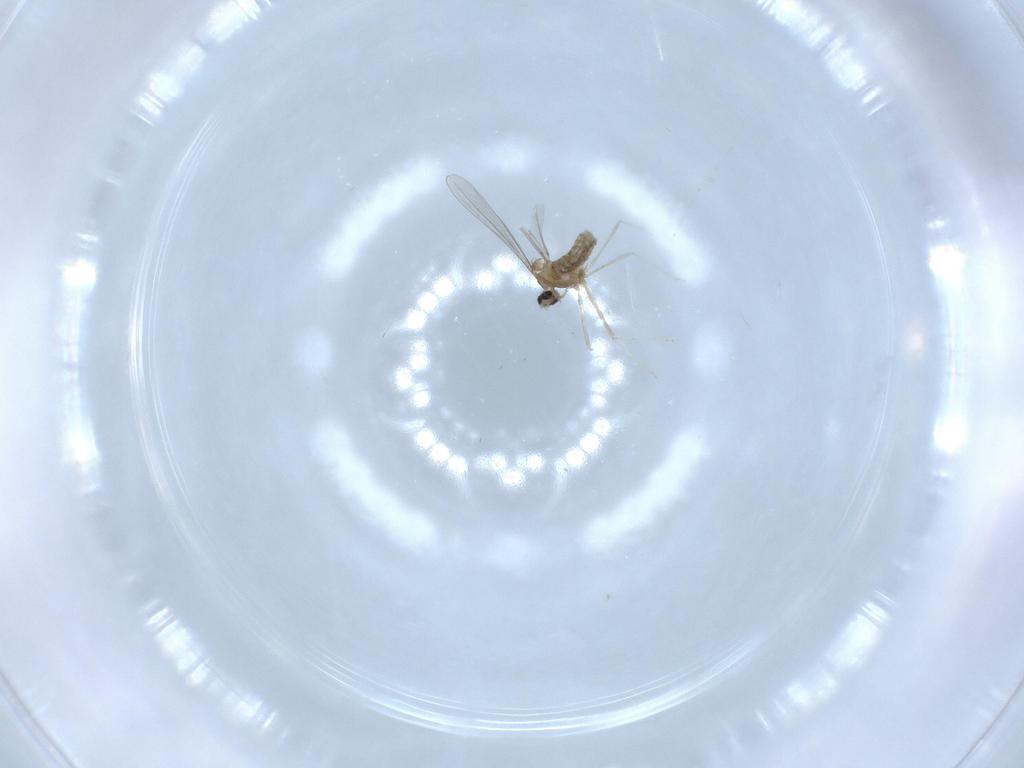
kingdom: Animalia
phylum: Arthropoda
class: Insecta
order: Diptera
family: Cecidomyiidae
